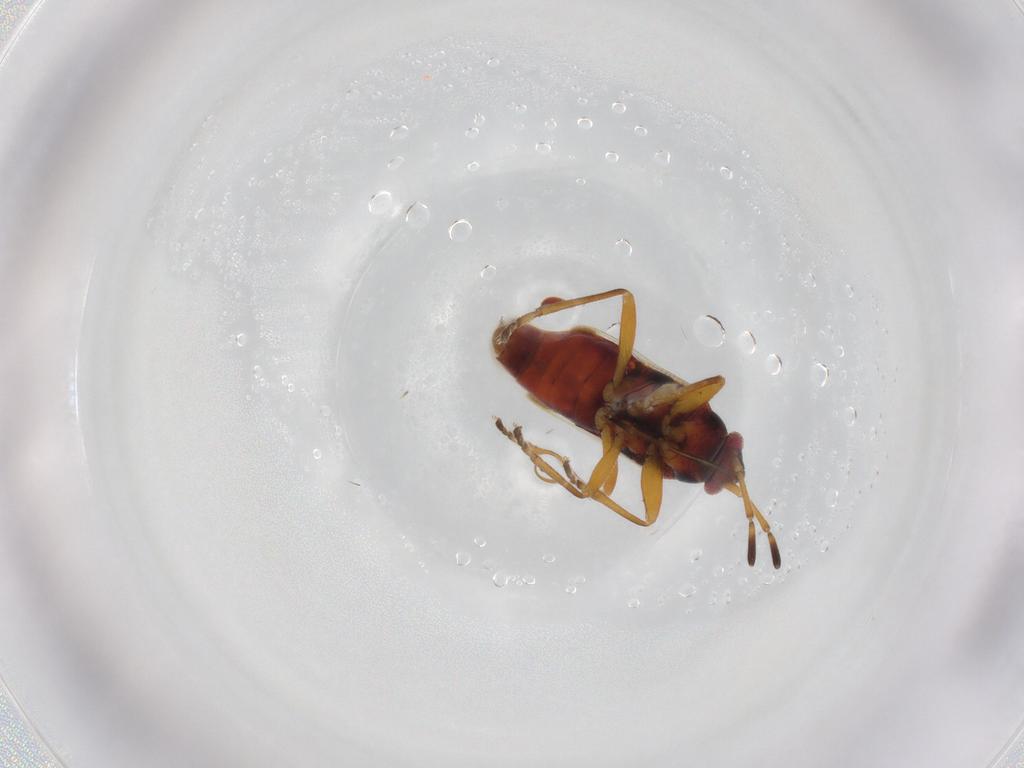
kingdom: Animalia
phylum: Arthropoda
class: Insecta
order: Hemiptera
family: Rhyparochromidae
